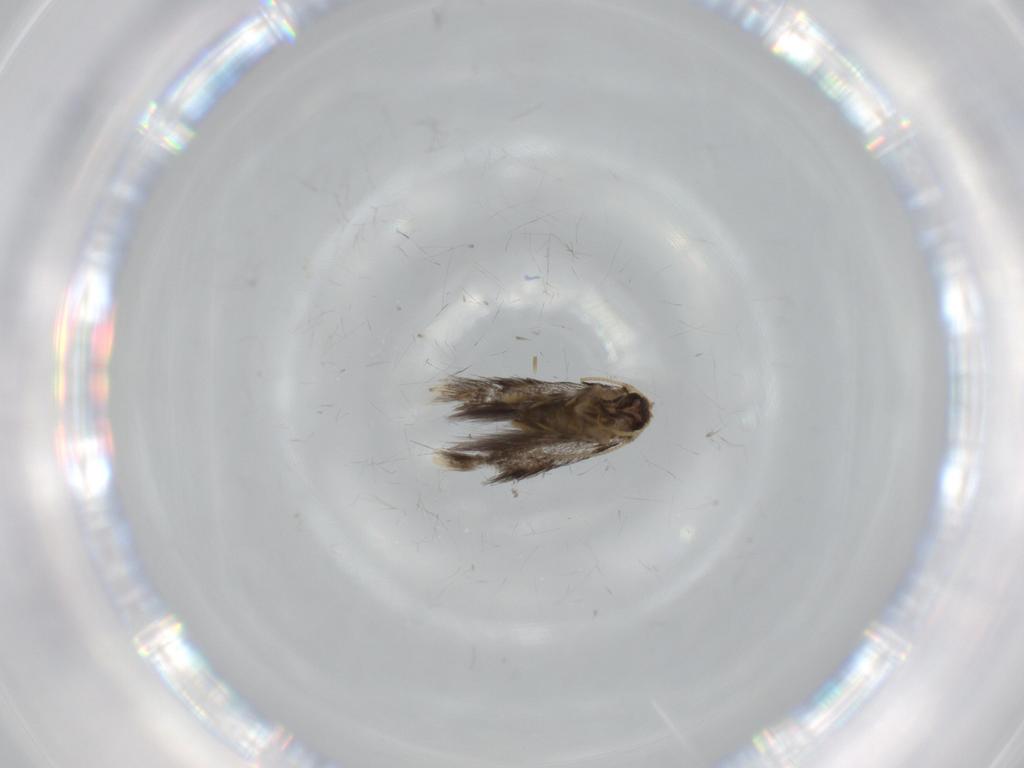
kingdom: Animalia
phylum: Arthropoda
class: Insecta
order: Lepidoptera
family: Nepticulidae
